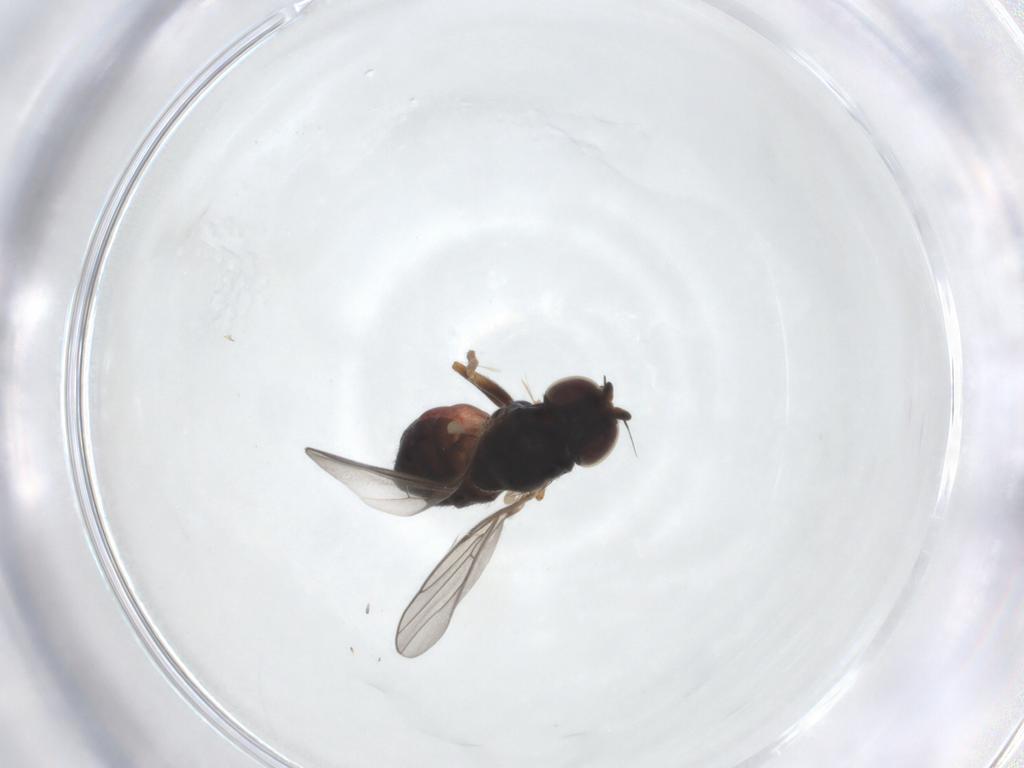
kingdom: Animalia
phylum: Arthropoda
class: Insecta
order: Diptera
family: Chloropidae
